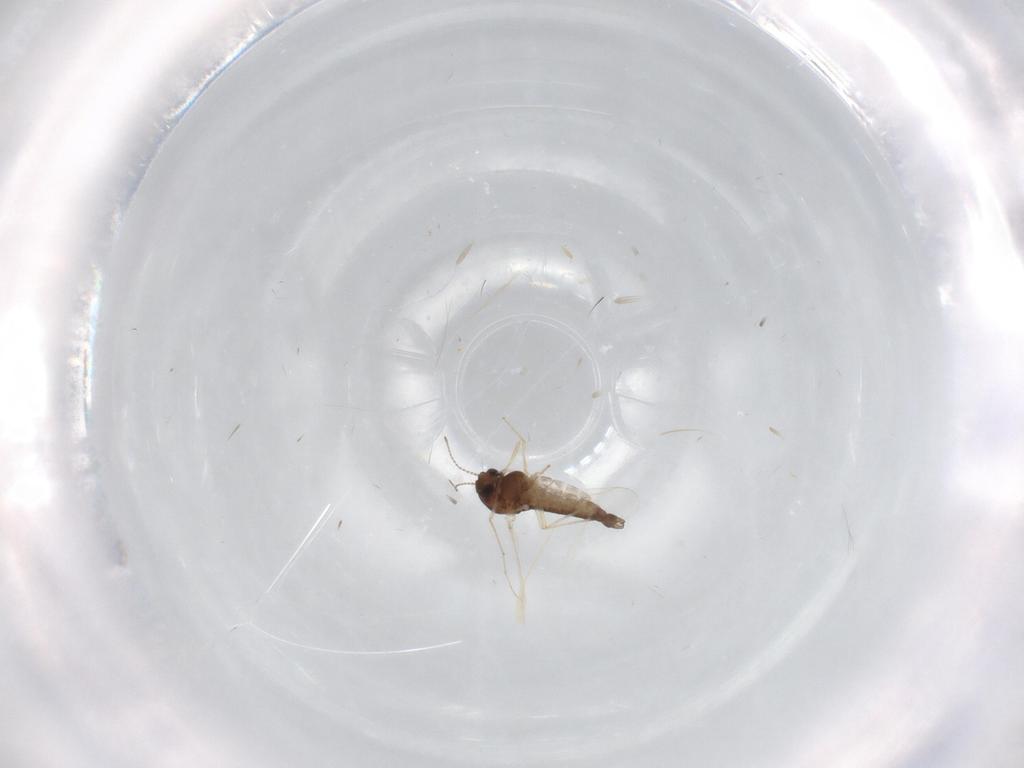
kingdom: Animalia
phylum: Arthropoda
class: Insecta
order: Diptera
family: Chironomidae
